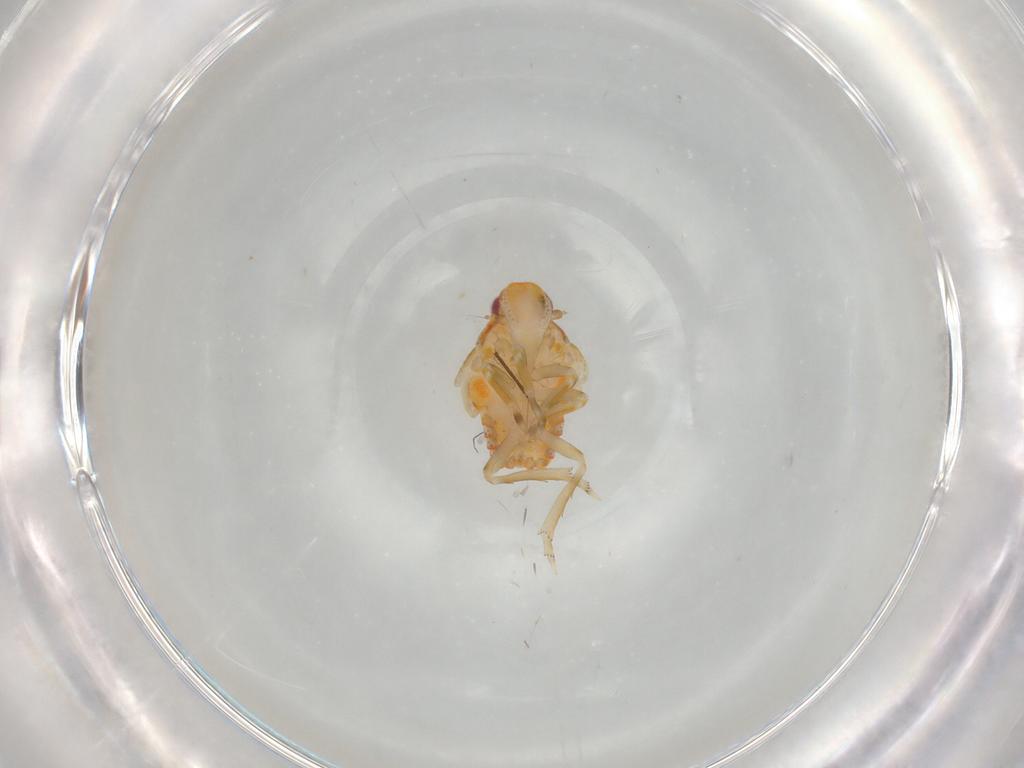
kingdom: Animalia
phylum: Arthropoda
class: Insecta
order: Hemiptera
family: Flatidae
